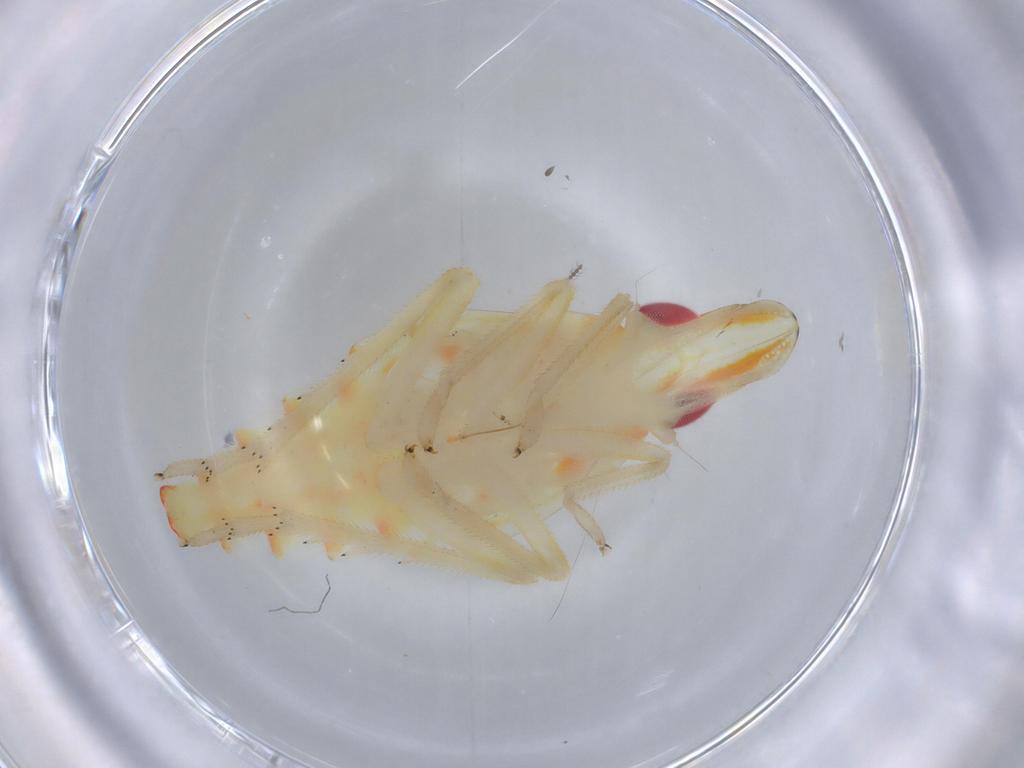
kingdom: Animalia
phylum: Arthropoda
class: Insecta
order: Hemiptera
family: Tropiduchidae
